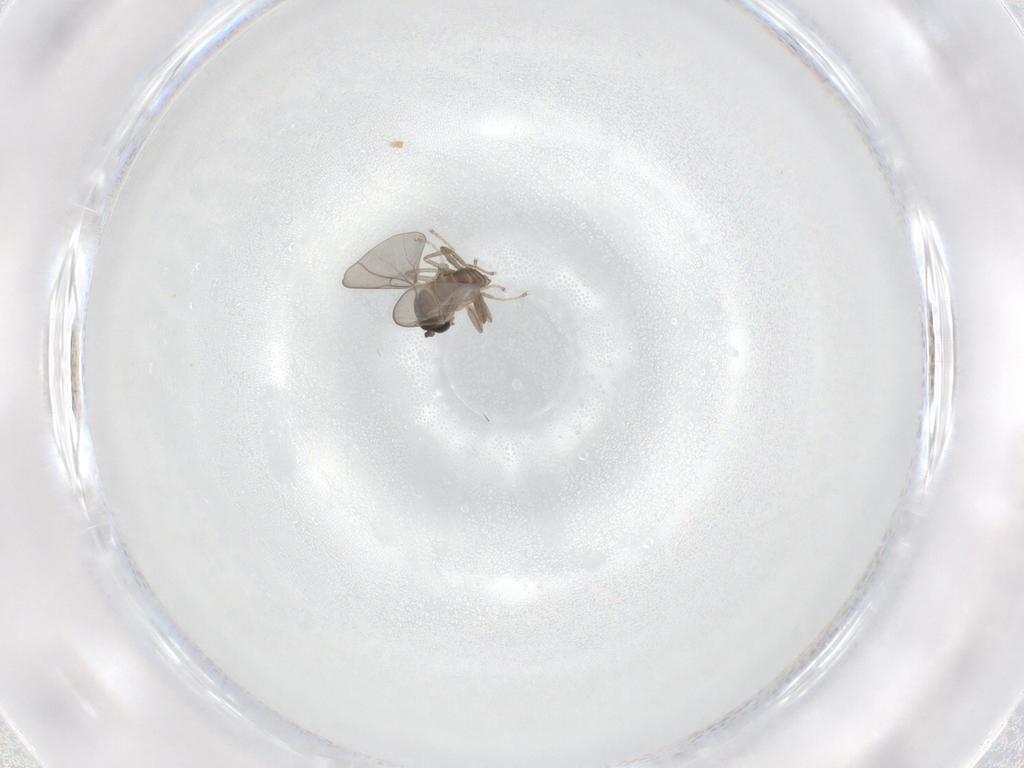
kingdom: Animalia
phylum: Arthropoda
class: Insecta
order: Diptera
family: Cecidomyiidae
